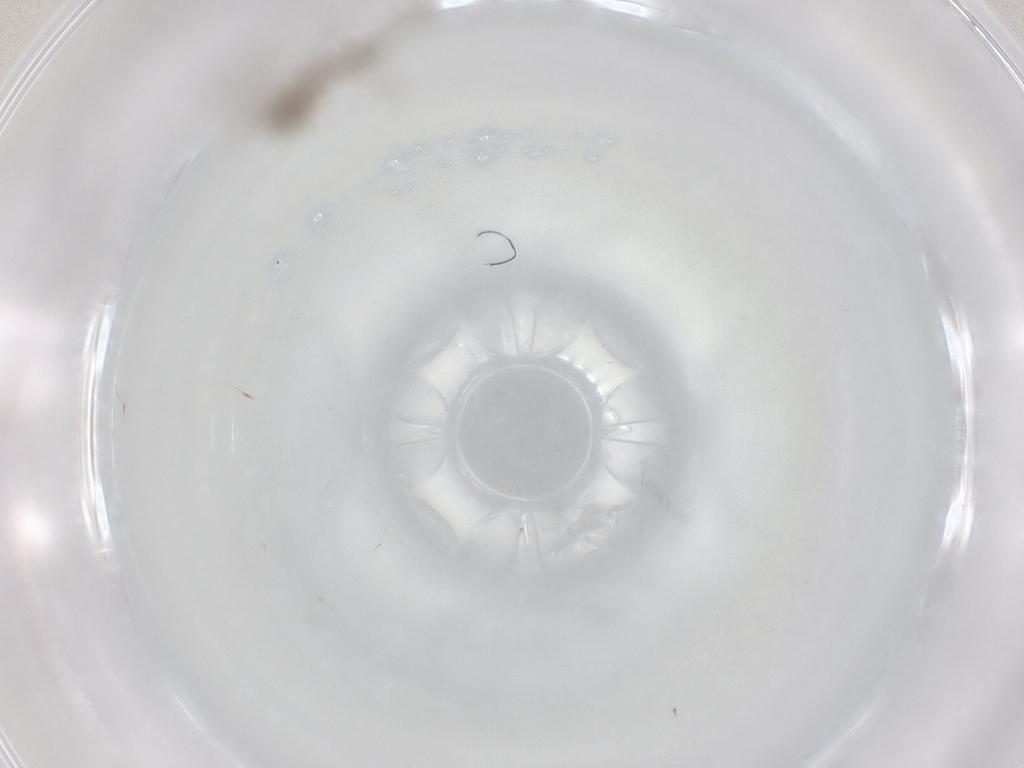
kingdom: Animalia
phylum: Arthropoda
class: Insecta
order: Diptera
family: Cecidomyiidae
